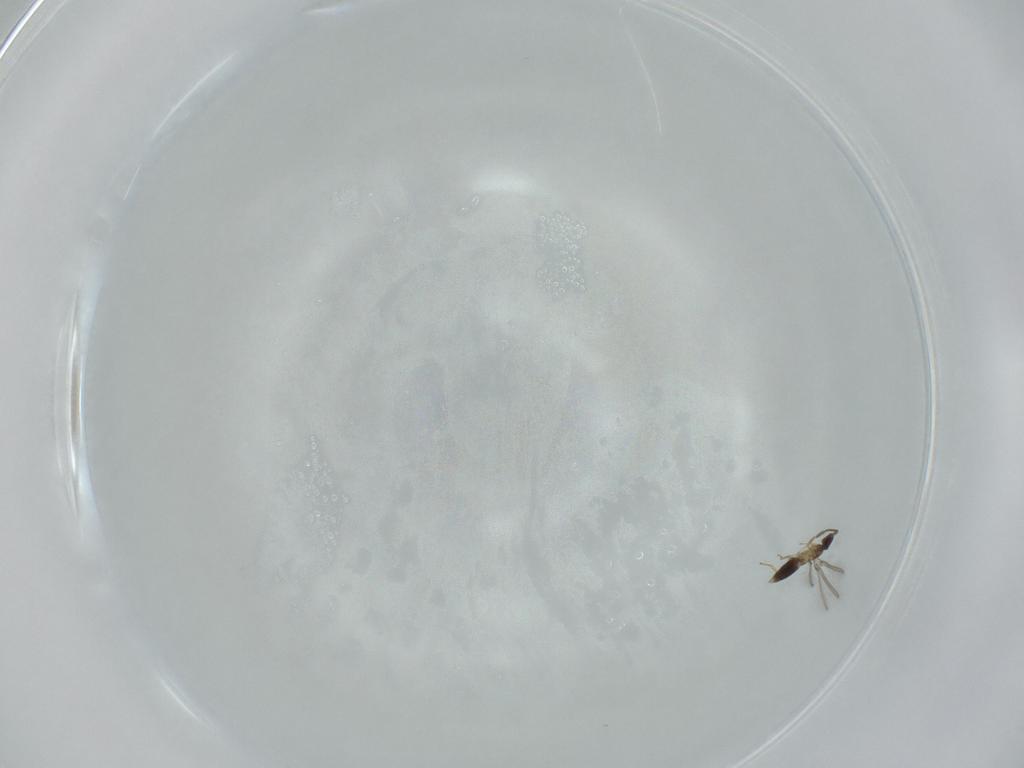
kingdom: Animalia
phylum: Arthropoda
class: Insecta
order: Hymenoptera
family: Mymaridae
